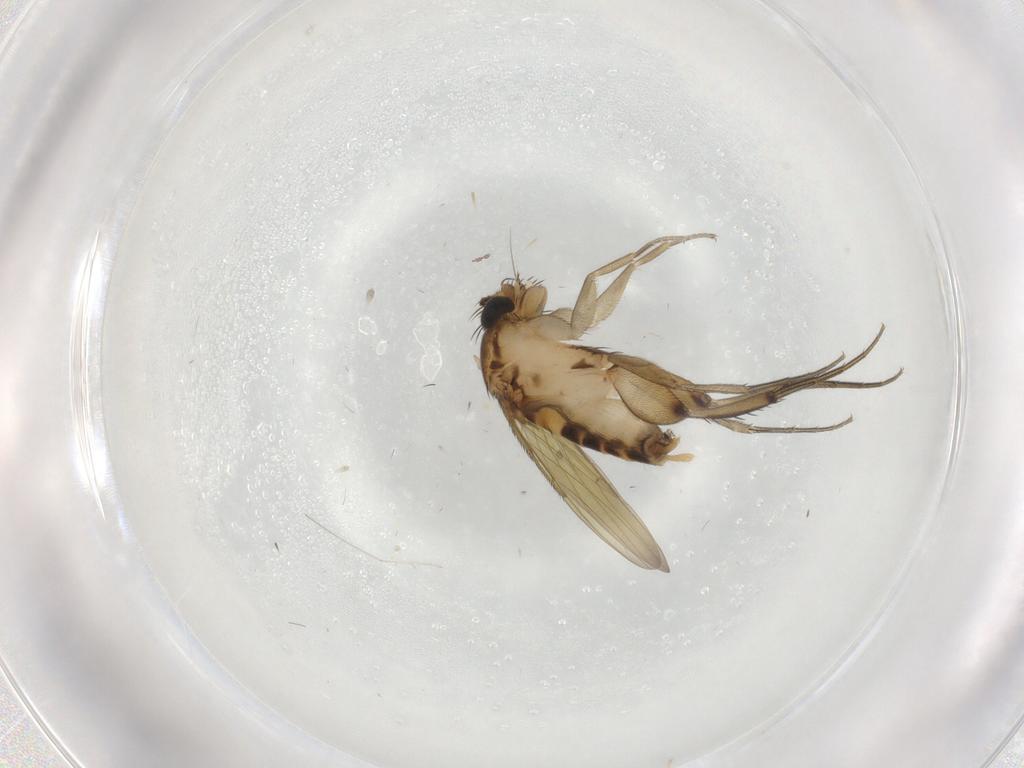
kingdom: Animalia
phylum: Arthropoda
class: Insecta
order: Diptera
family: Phoridae
